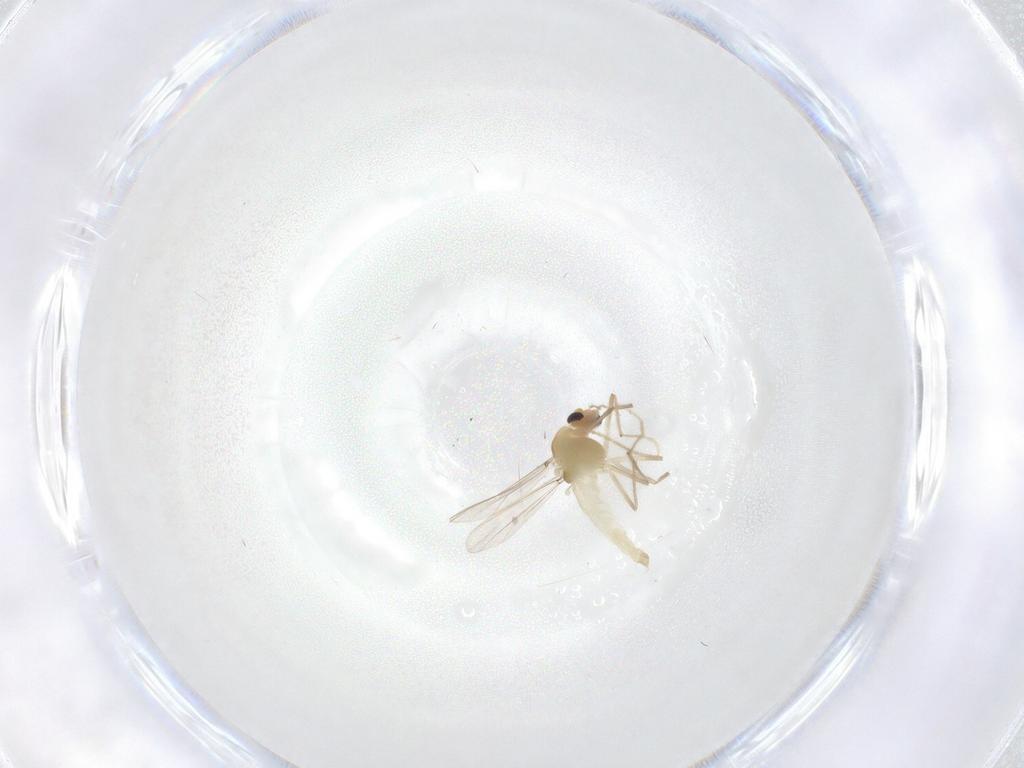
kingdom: Animalia
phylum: Arthropoda
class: Insecta
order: Diptera
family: Chironomidae
